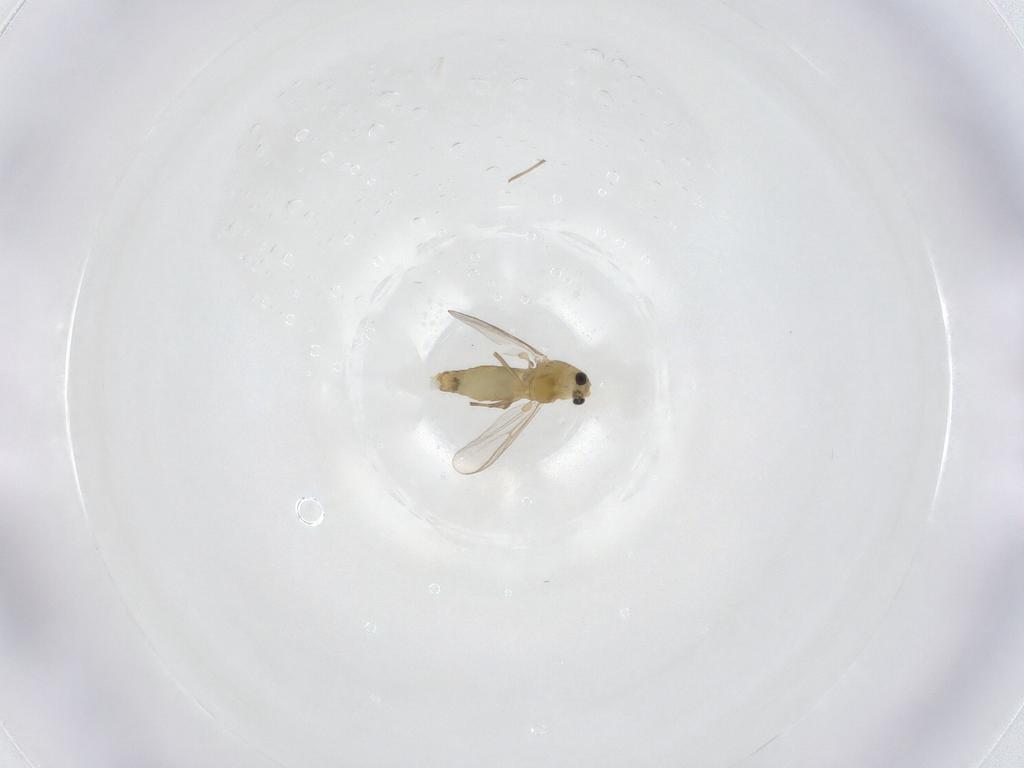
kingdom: Animalia
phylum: Arthropoda
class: Insecta
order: Diptera
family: Chironomidae
